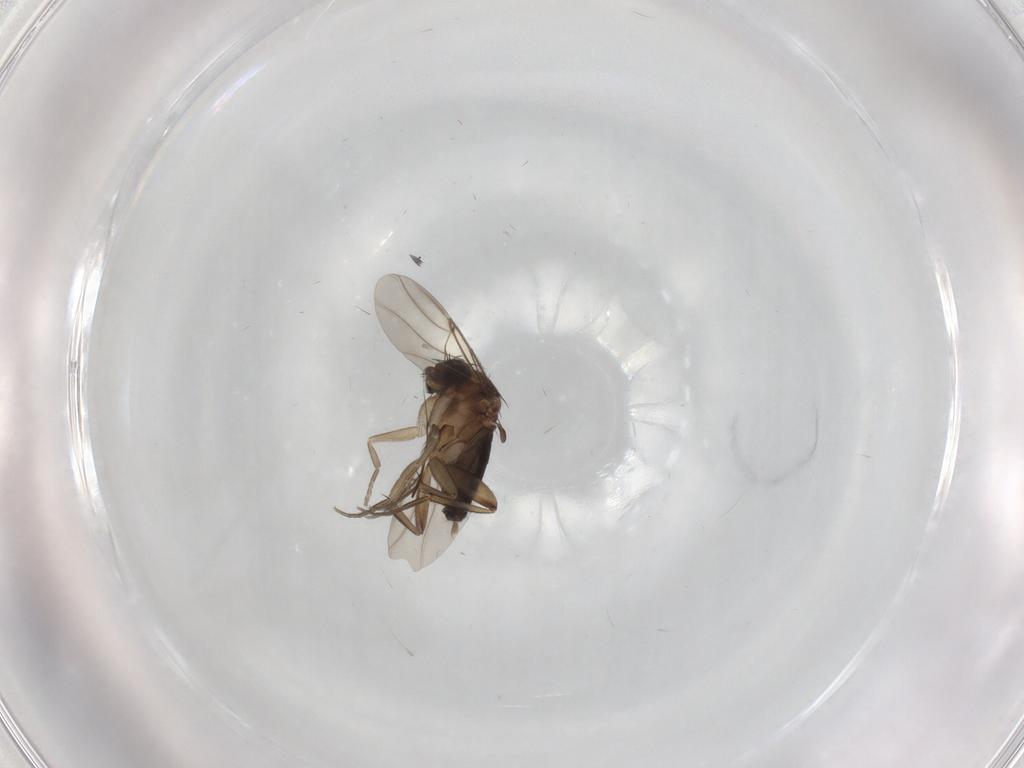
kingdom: Animalia
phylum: Arthropoda
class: Insecta
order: Diptera
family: Phoridae
